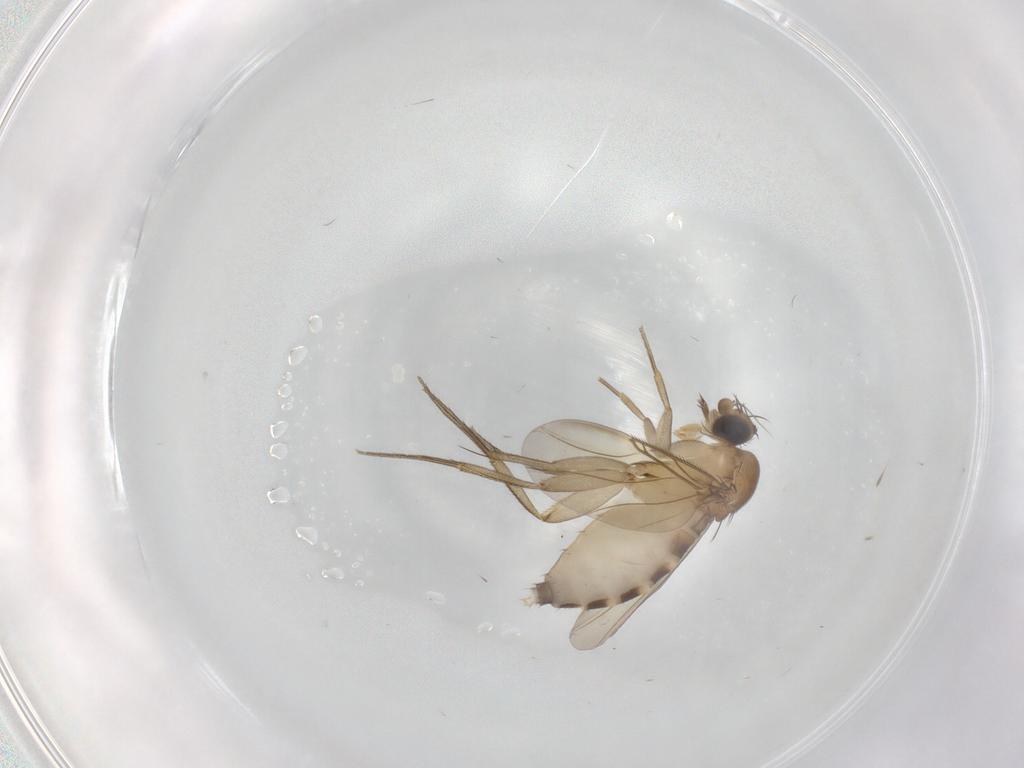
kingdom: Animalia
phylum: Arthropoda
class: Insecta
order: Diptera
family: Phoridae
